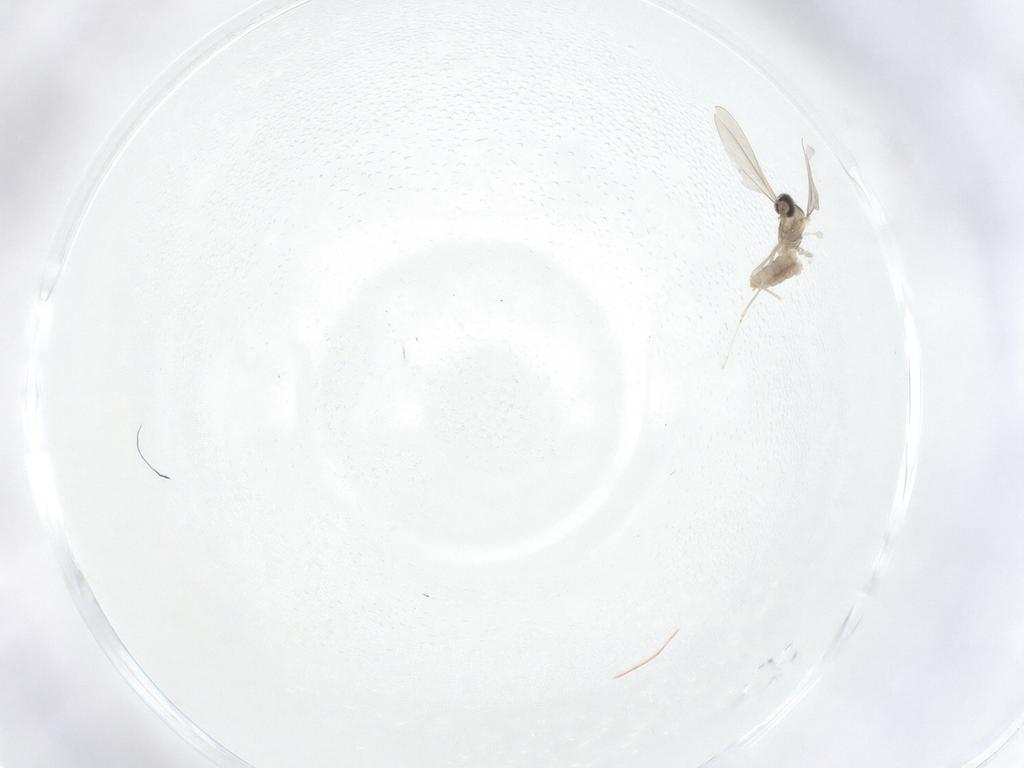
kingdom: Animalia
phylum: Arthropoda
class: Insecta
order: Diptera
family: Cecidomyiidae
